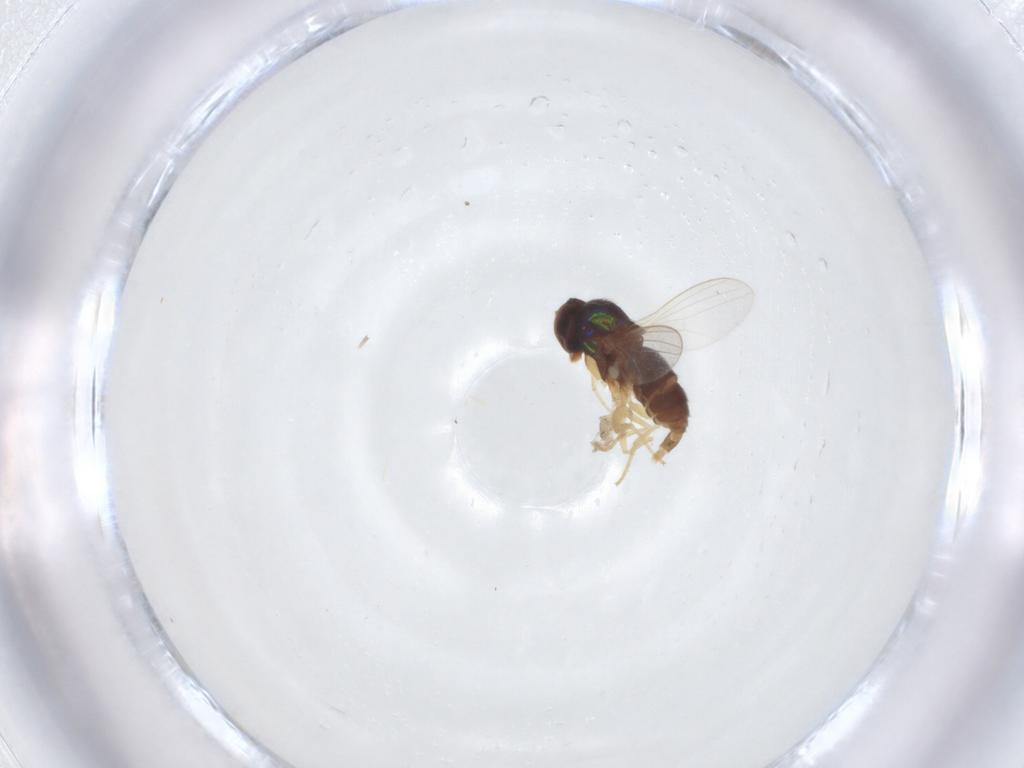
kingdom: Animalia
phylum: Arthropoda
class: Insecta
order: Diptera
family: Dolichopodidae
